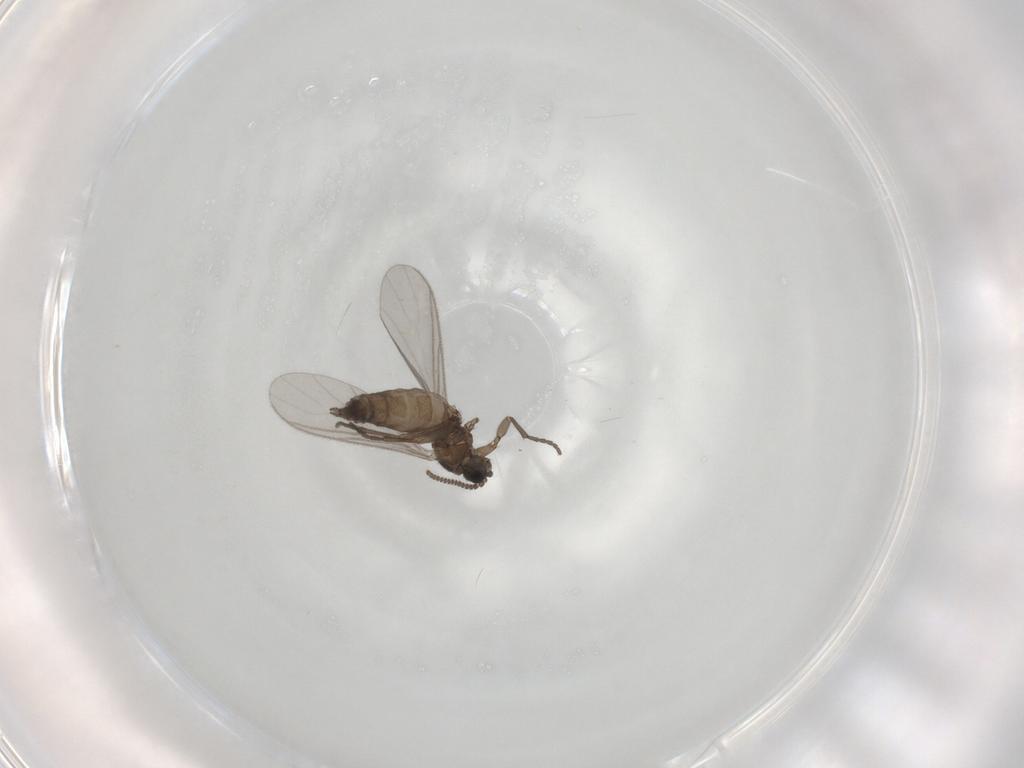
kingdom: Animalia
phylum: Arthropoda
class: Insecta
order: Diptera
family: Sciaridae
